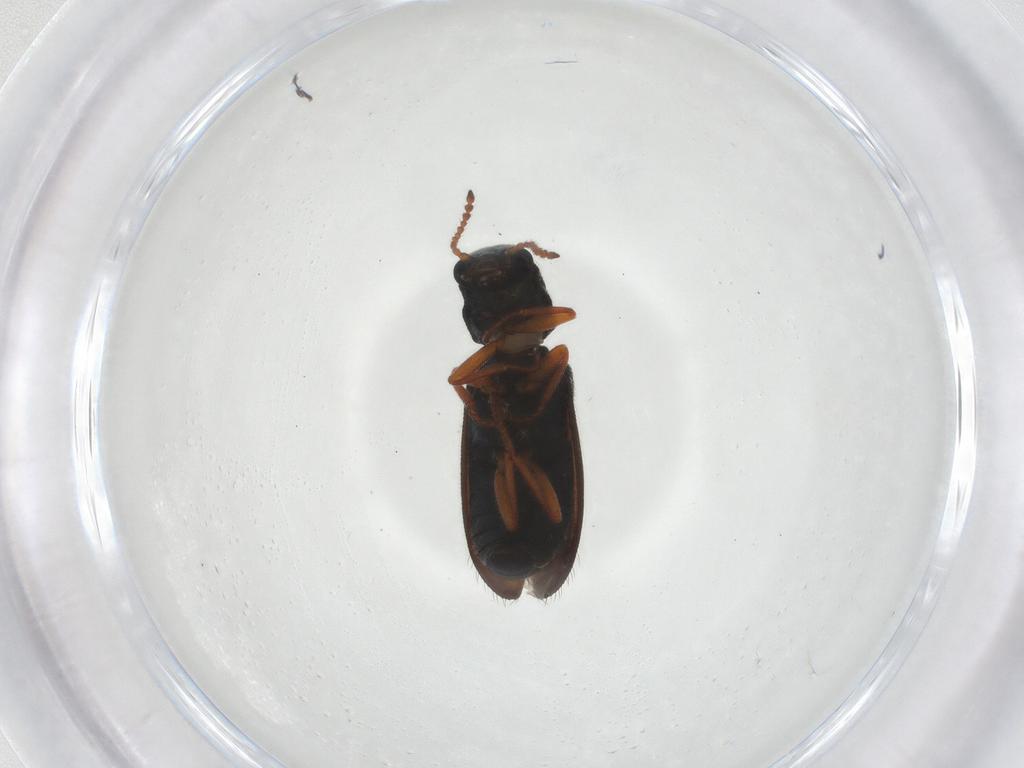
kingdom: Animalia
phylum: Arthropoda
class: Insecta
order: Coleoptera
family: Melyridae
